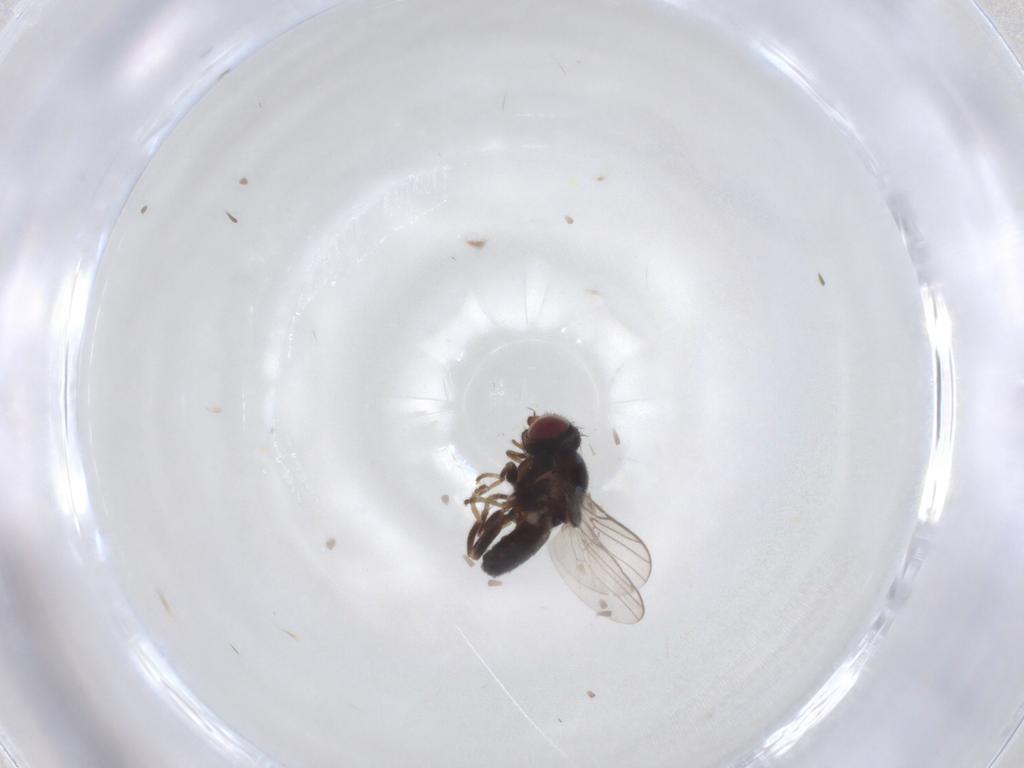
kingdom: Animalia
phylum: Arthropoda
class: Insecta
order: Diptera
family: Chloropidae
